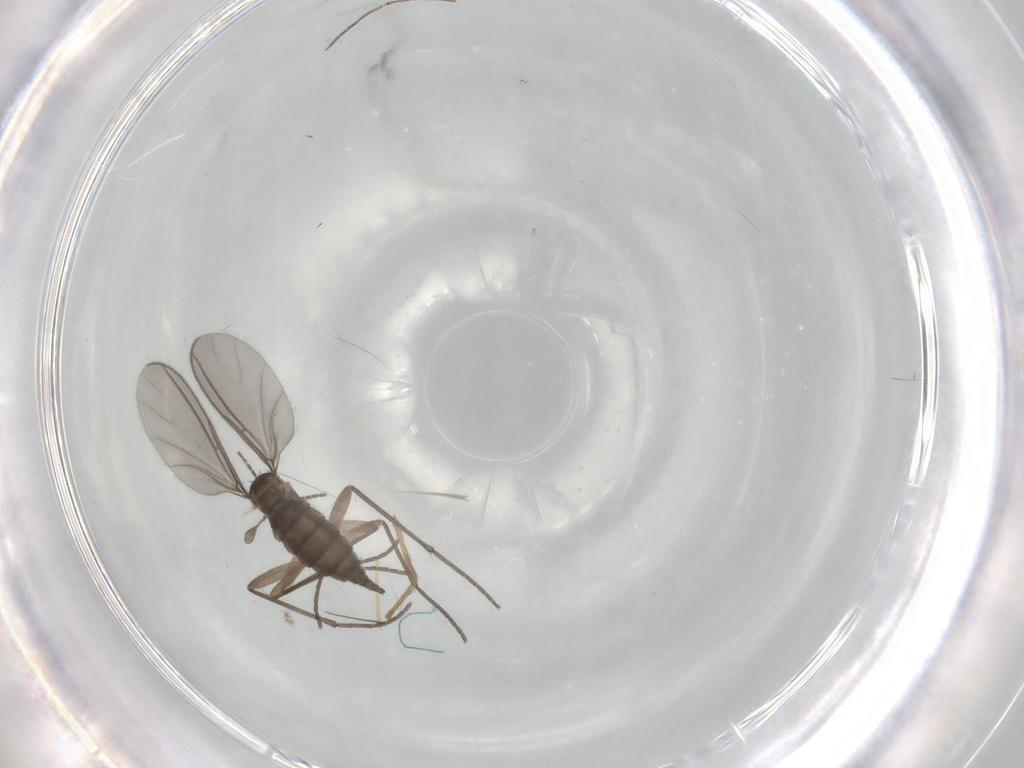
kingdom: Animalia
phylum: Arthropoda
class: Insecta
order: Diptera
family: Sciaridae
